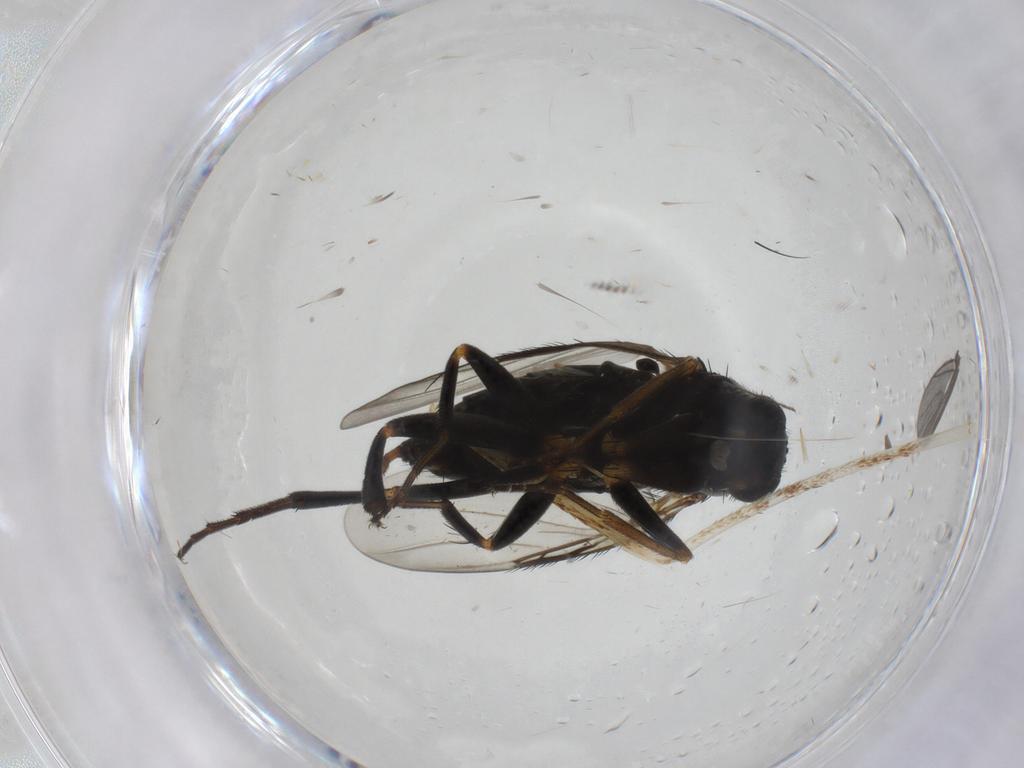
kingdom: Animalia
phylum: Arthropoda
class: Insecta
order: Diptera
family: Phoridae
